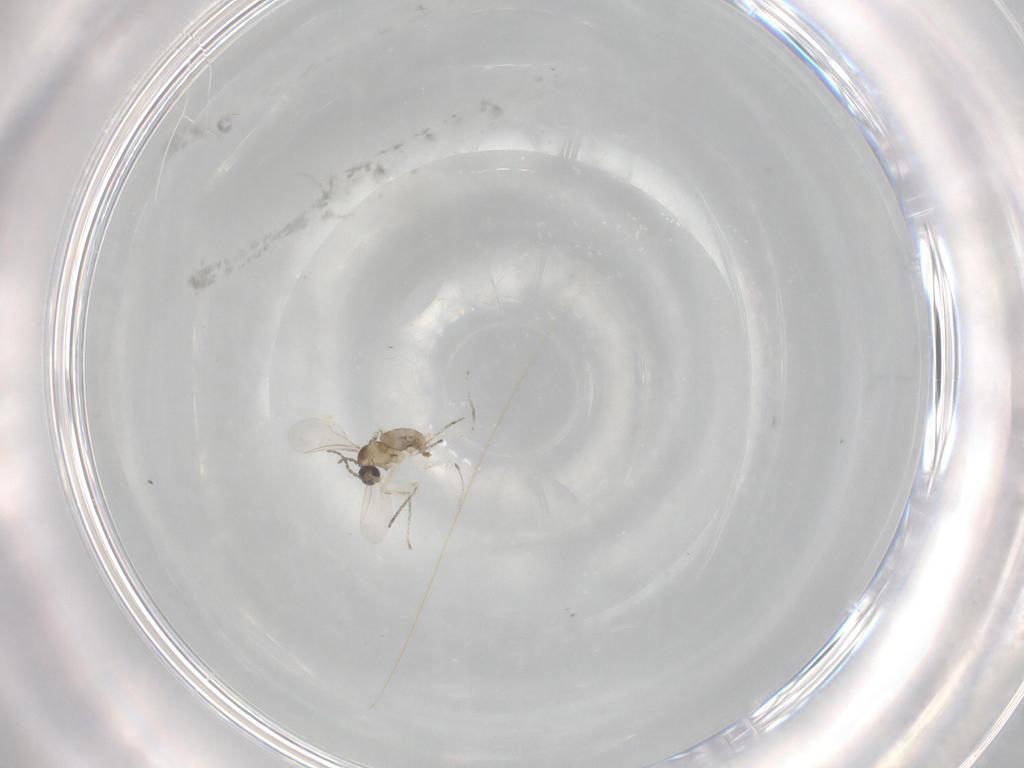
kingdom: Animalia
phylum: Arthropoda
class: Insecta
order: Diptera
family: Cecidomyiidae
